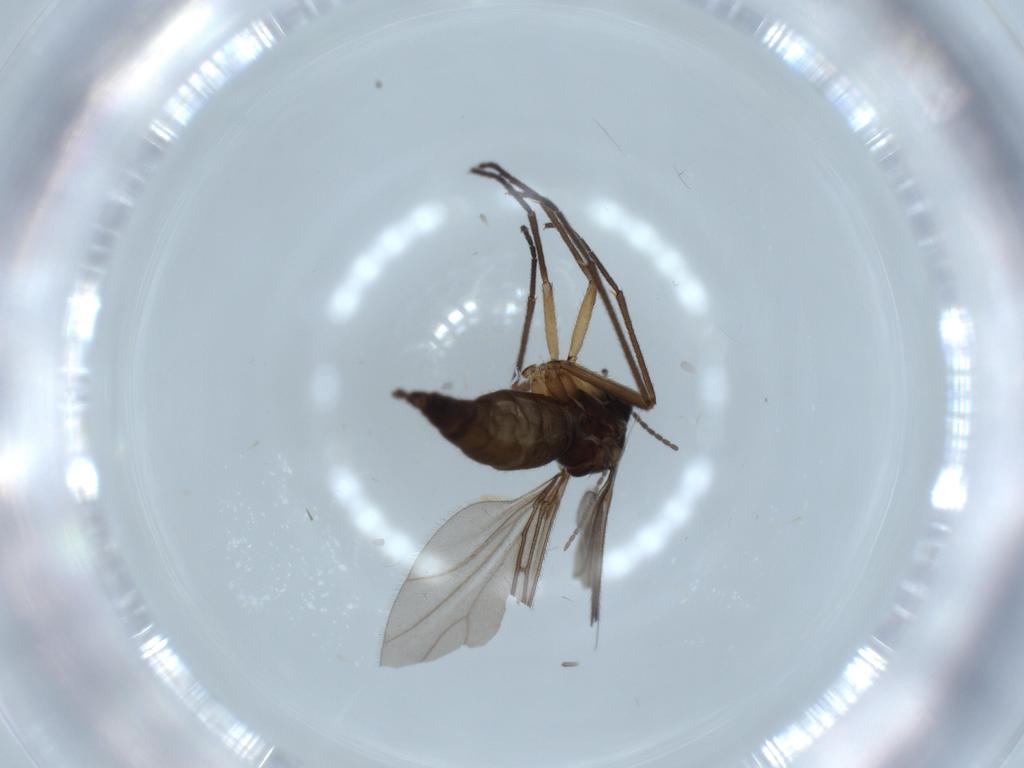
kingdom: Animalia
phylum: Arthropoda
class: Insecta
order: Diptera
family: Sciaridae
